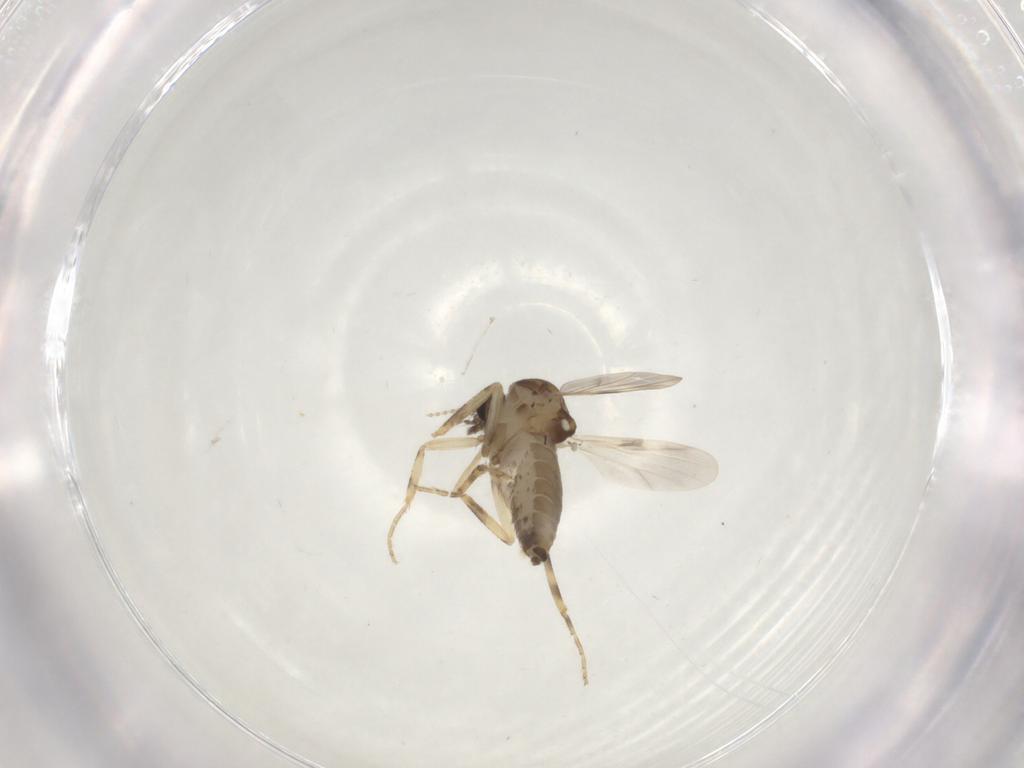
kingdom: Animalia
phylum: Arthropoda
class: Insecta
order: Diptera
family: Ceratopogonidae
